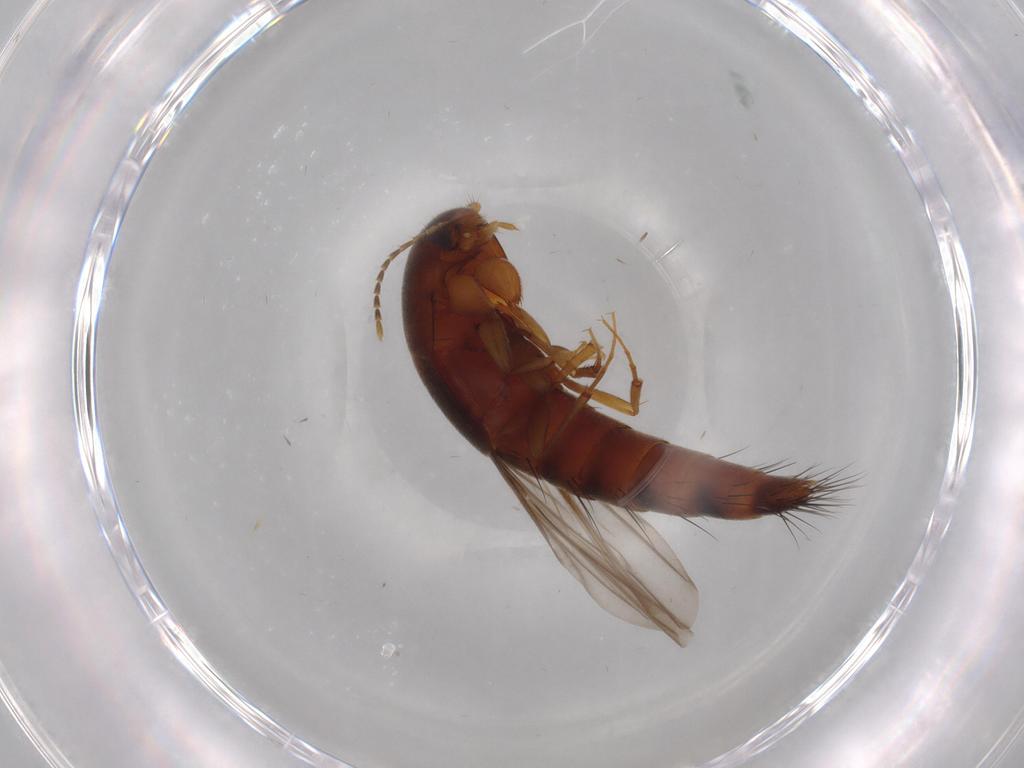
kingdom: Animalia
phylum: Arthropoda
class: Insecta
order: Coleoptera
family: Staphylinidae
